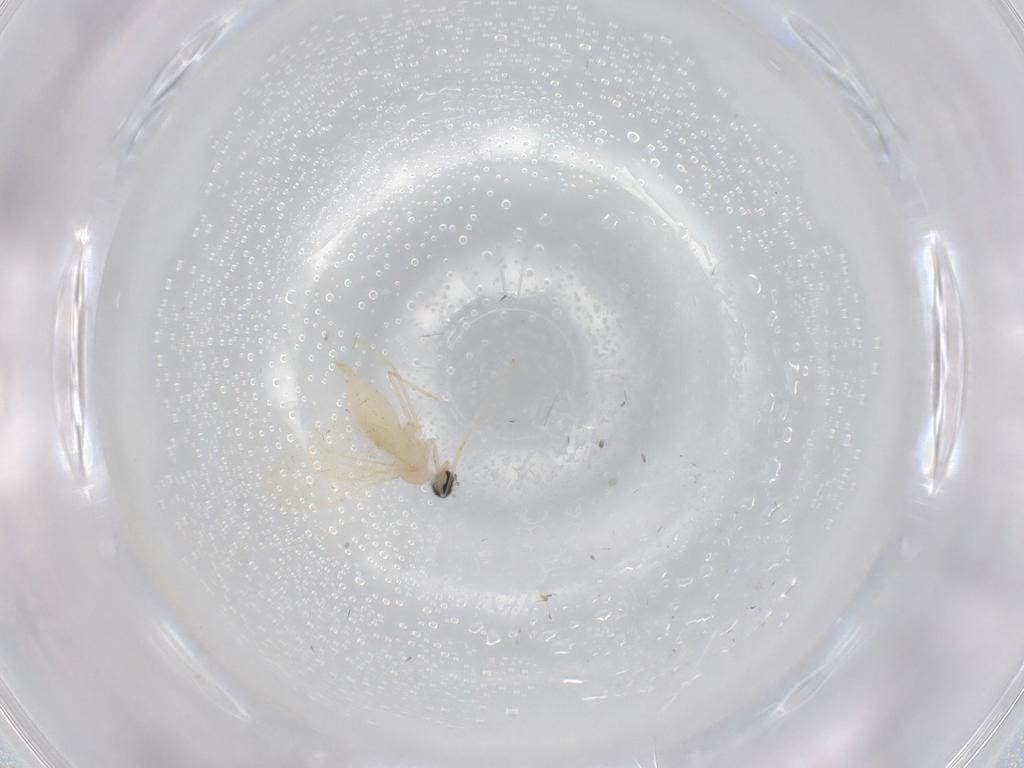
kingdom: Animalia
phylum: Arthropoda
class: Insecta
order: Diptera
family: Cecidomyiidae
